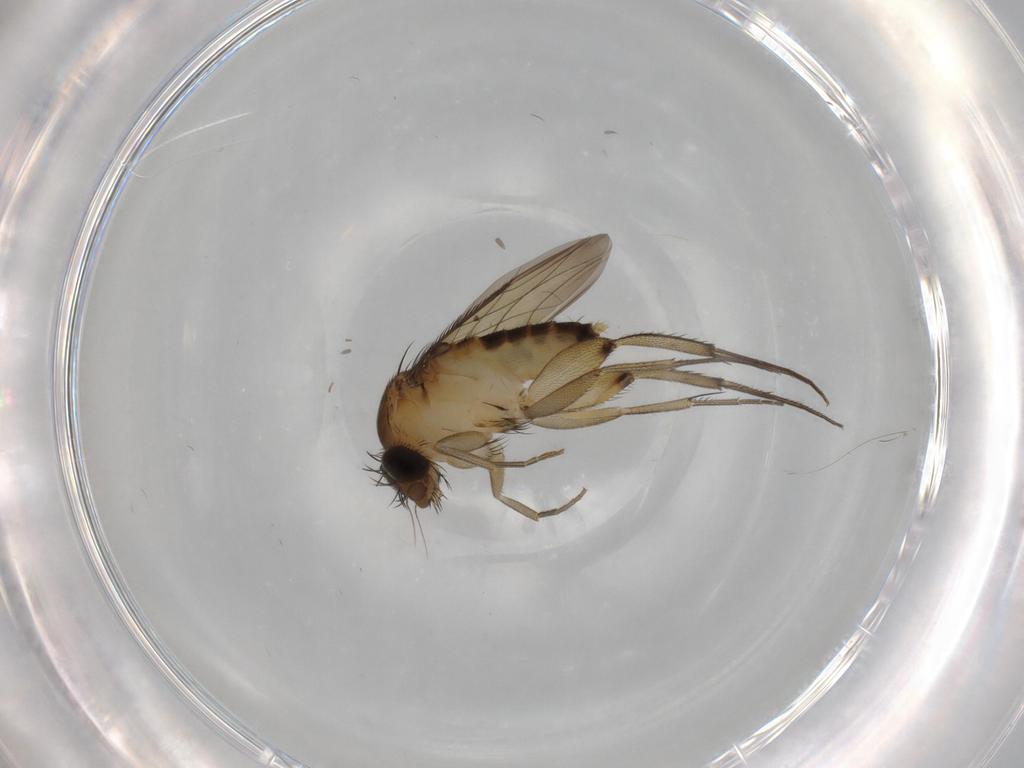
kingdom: Animalia
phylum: Arthropoda
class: Insecta
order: Diptera
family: Phoridae
